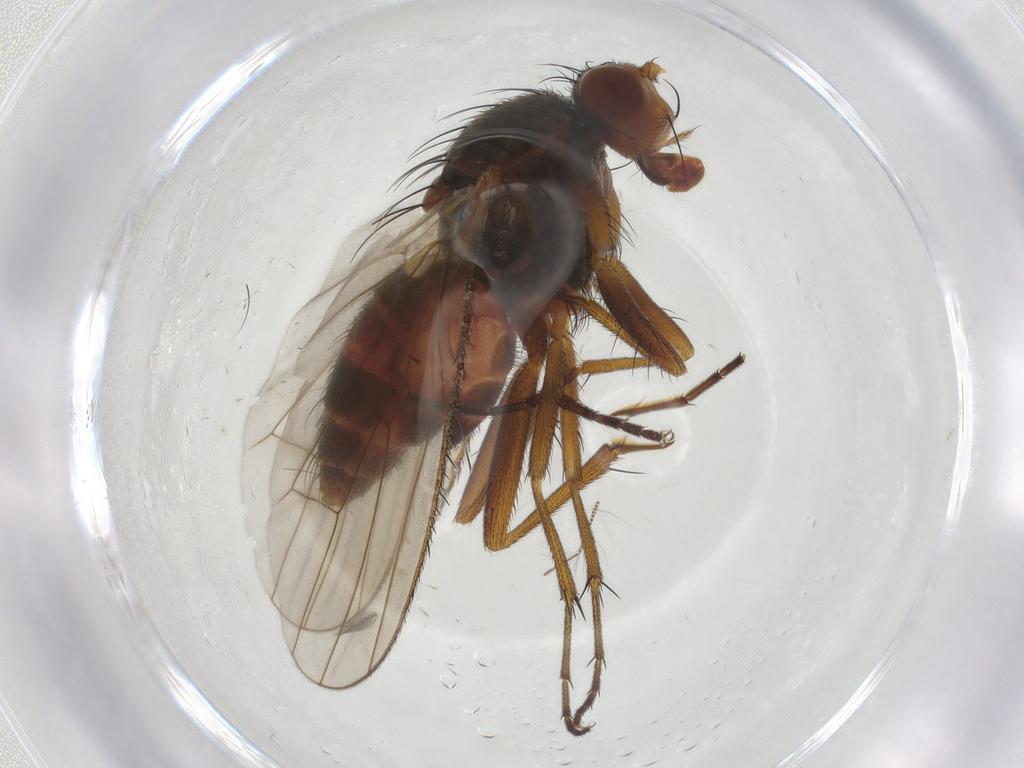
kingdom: Animalia
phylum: Arthropoda
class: Insecta
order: Diptera
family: Heleomyzidae
